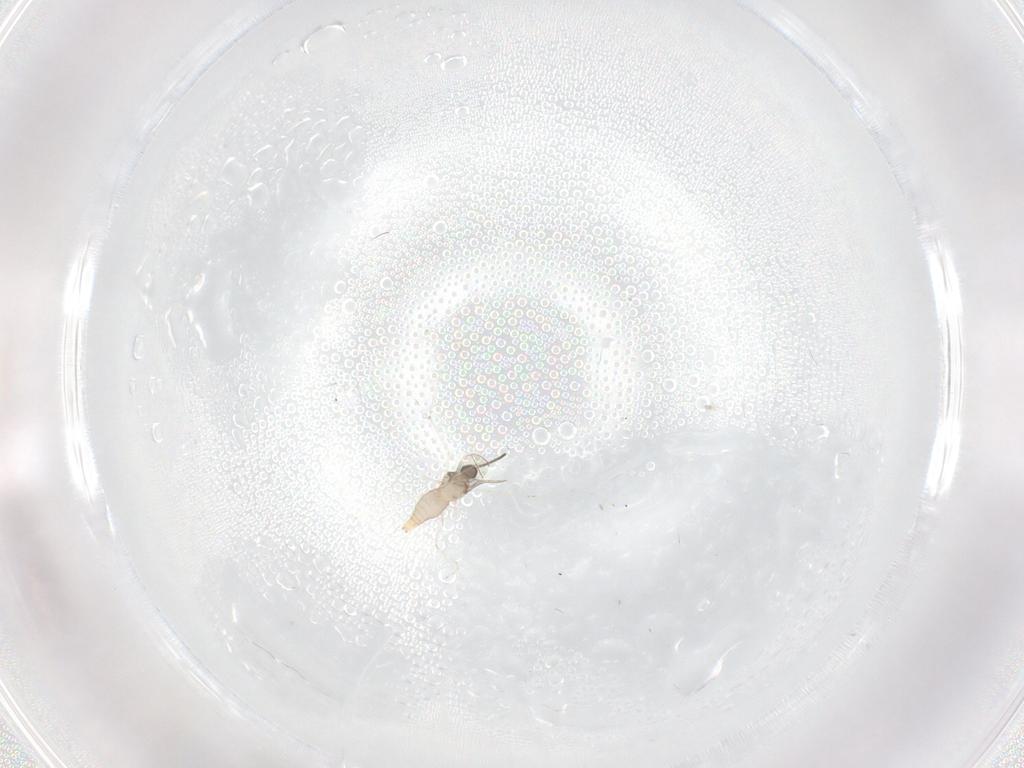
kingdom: Animalia
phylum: Arthropoda
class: Insecta
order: Diptera
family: Cecidomyiidae
